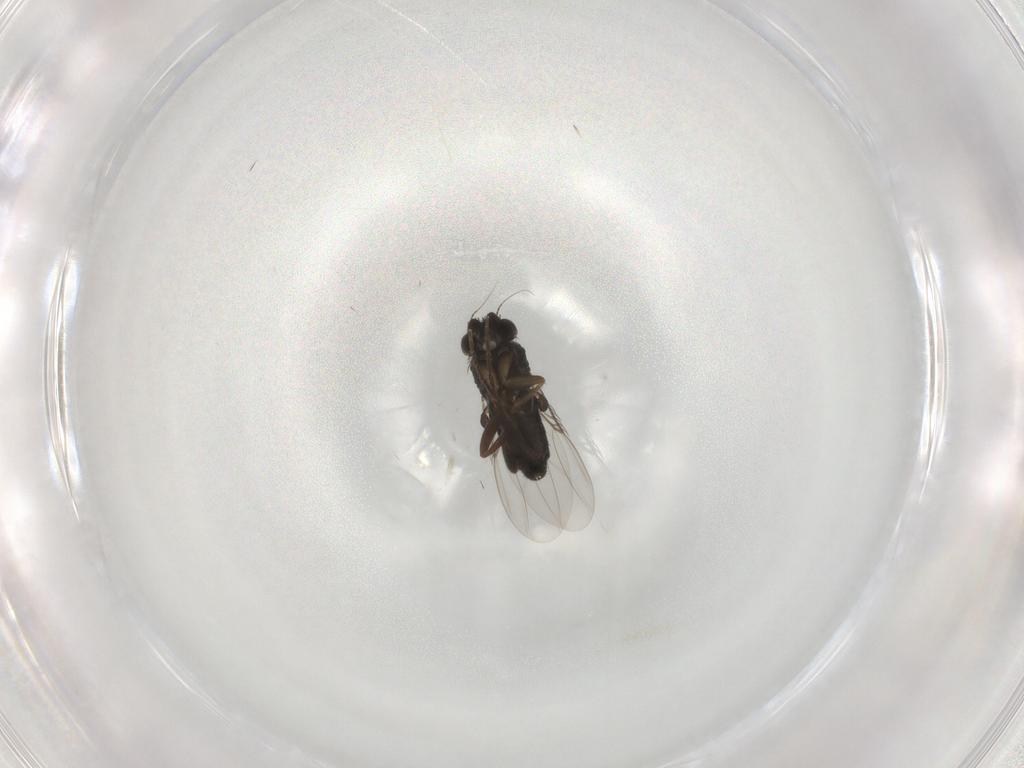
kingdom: Animalia
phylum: Arthropoda
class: Insecta
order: Diptera
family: Phoridae
